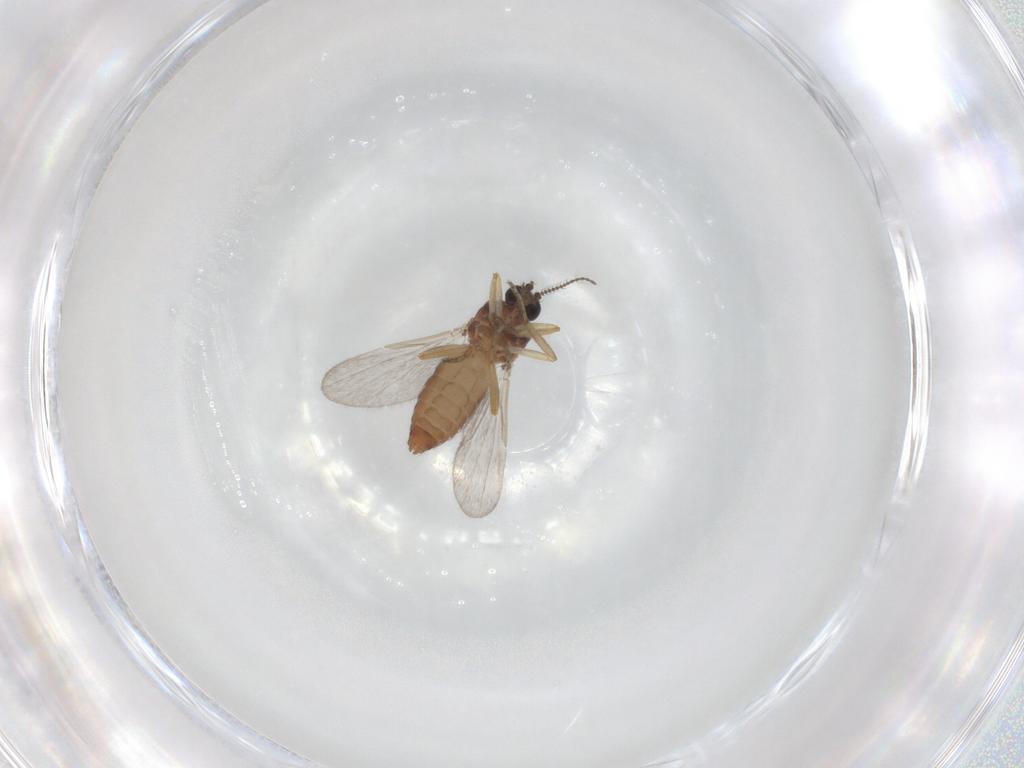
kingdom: Animalia
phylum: Arthropoda
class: Insecta
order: Diptera
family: Ceratopogonidae
